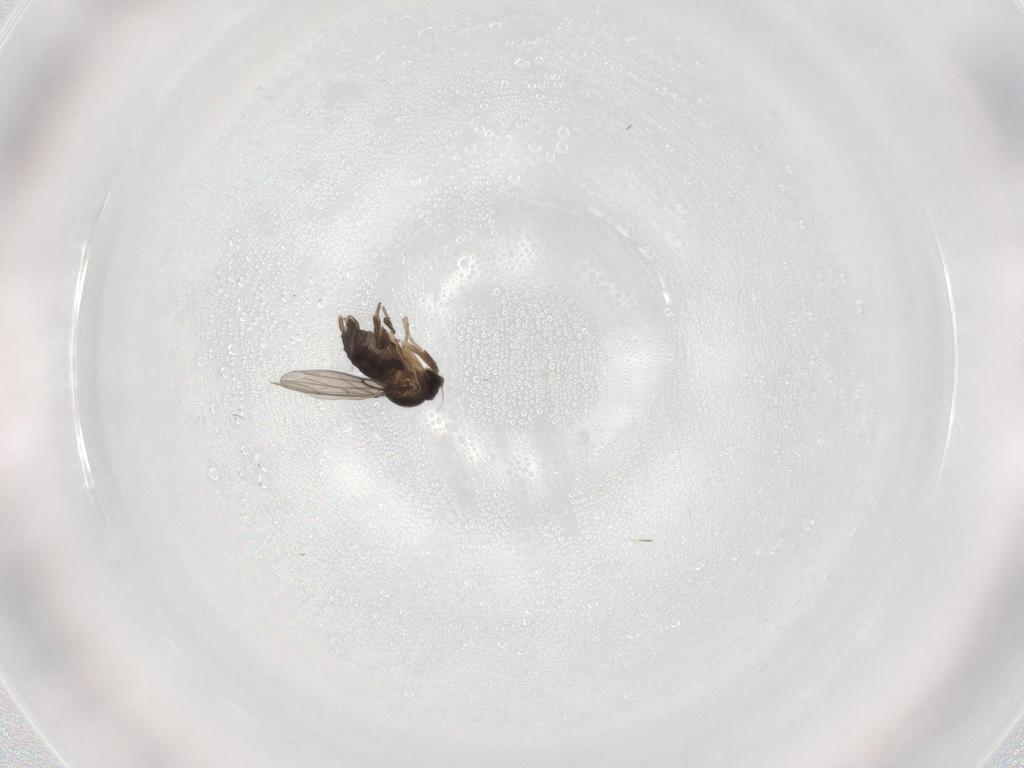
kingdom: Animalia
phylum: Arthropoda
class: Insecta
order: Diptera
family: Phoridae
